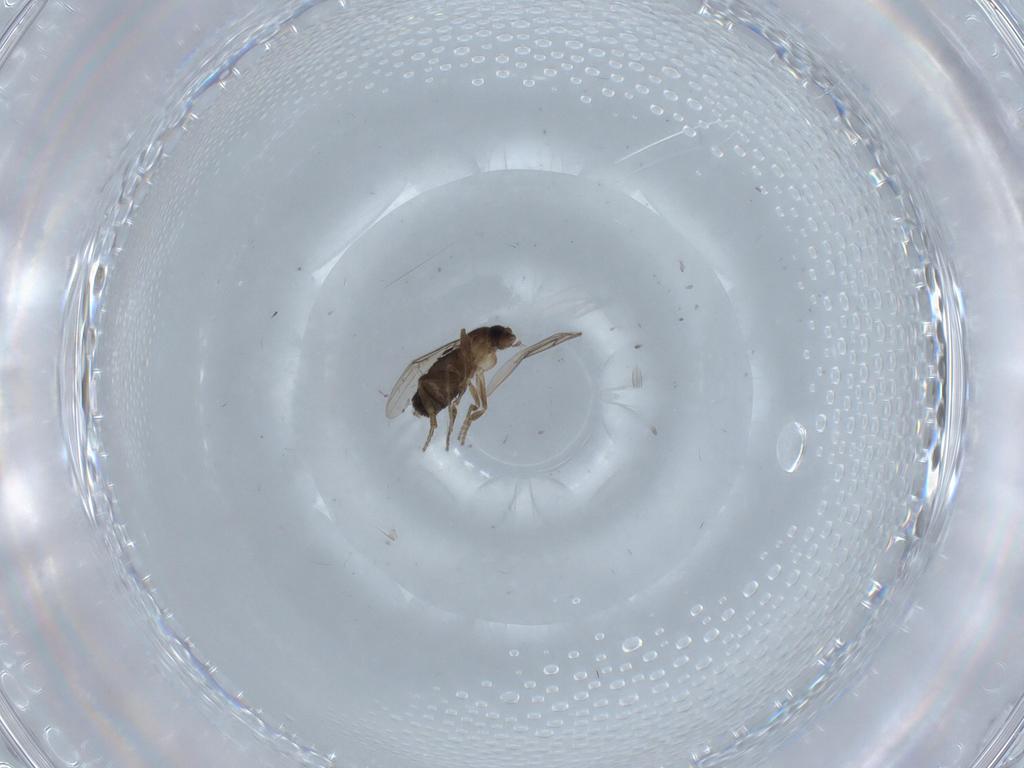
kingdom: Animalia
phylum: Arthropoda
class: Insecta
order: Diptera
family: Phoridae
